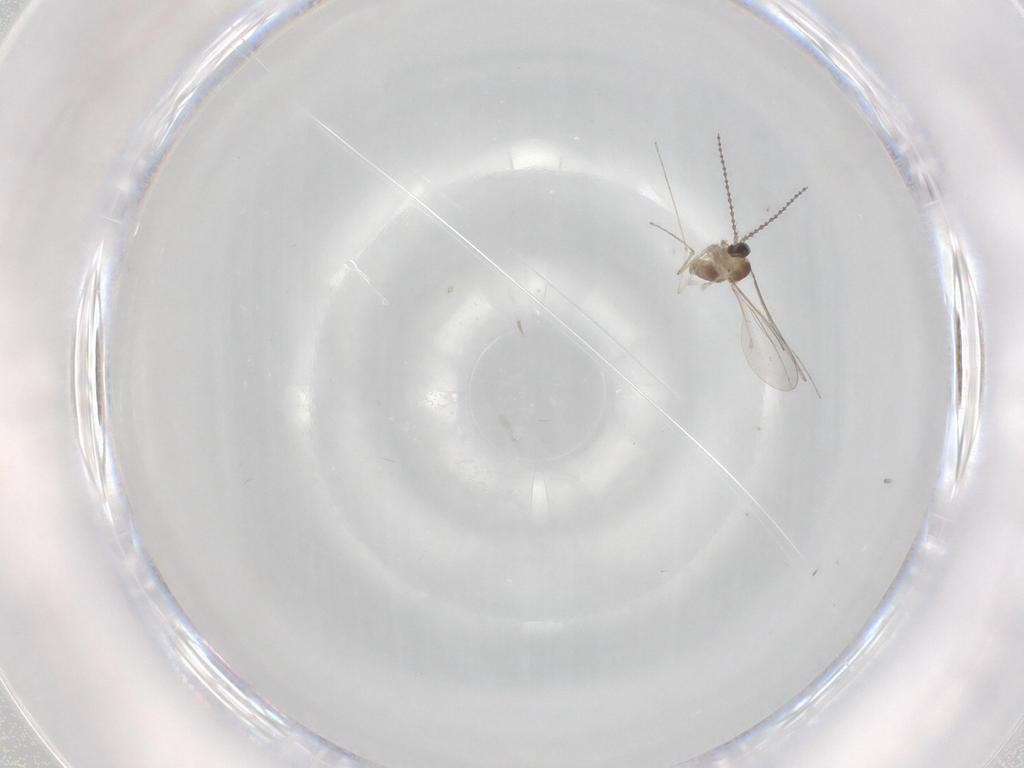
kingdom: Animalia
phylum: Arthropoda
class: Insecta
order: Diptera
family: Cecidomyiidae
